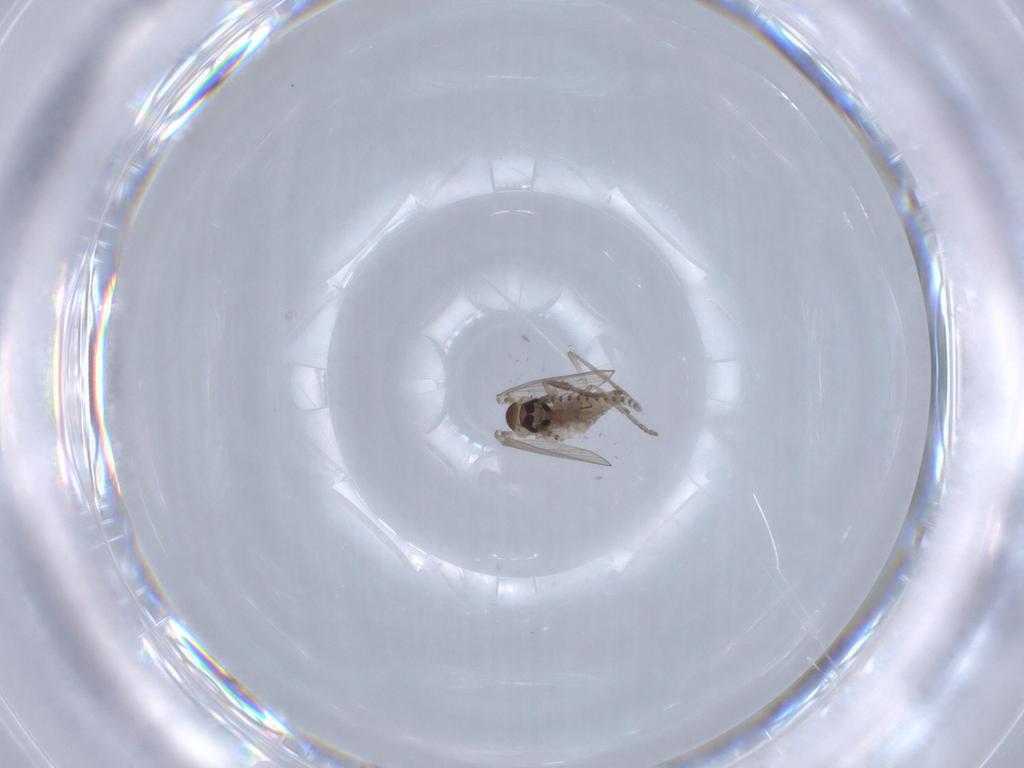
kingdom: Animalia
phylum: Arthropoda
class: Insecta
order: Diptera
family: Psychodidae
